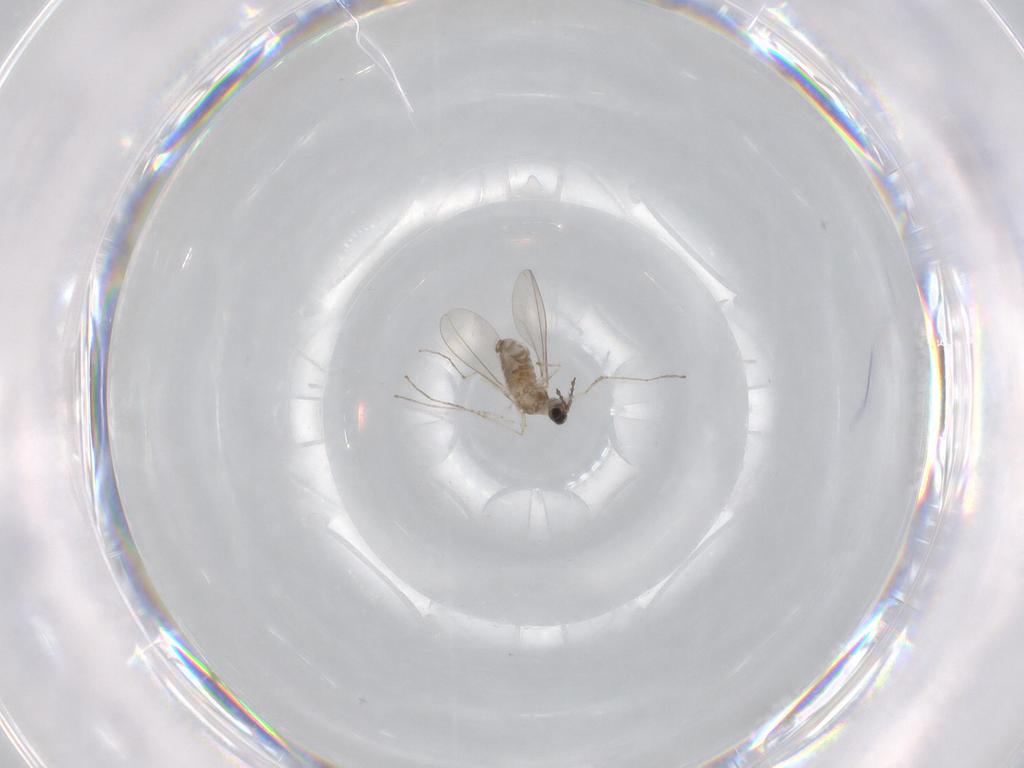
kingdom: Animalia
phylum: Arthropoda
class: Insecta
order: Diptera
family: Cecidomyiidae
